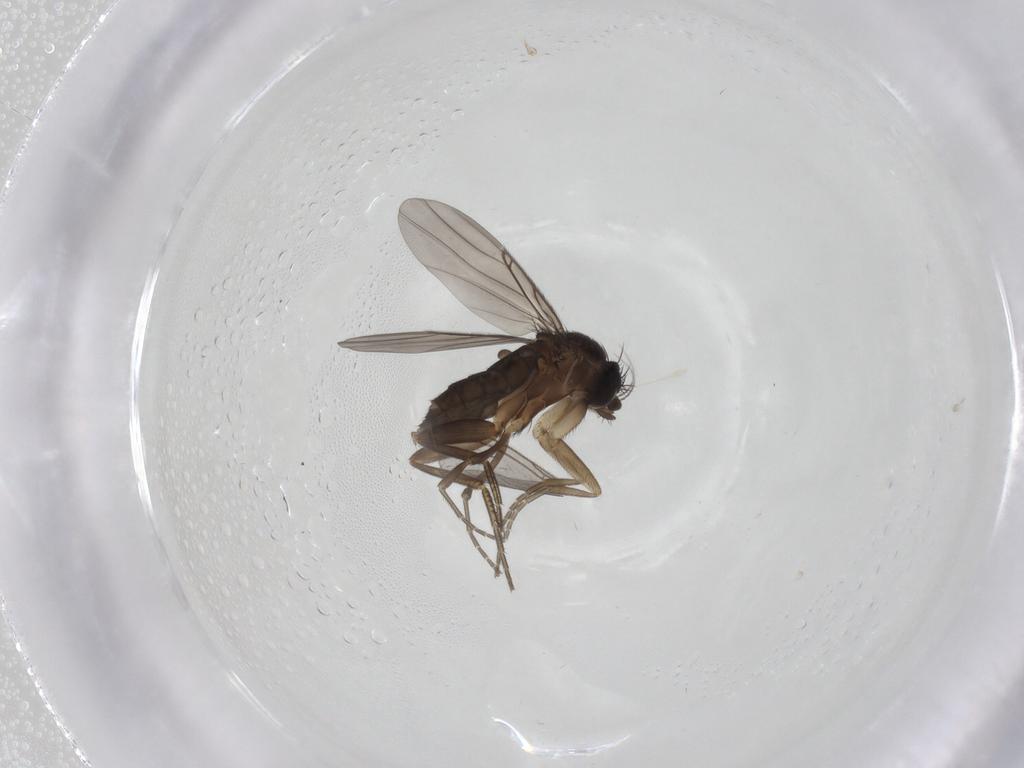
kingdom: Animalia
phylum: Arthropoda
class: Insecta
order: Diptera
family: Phoridae
